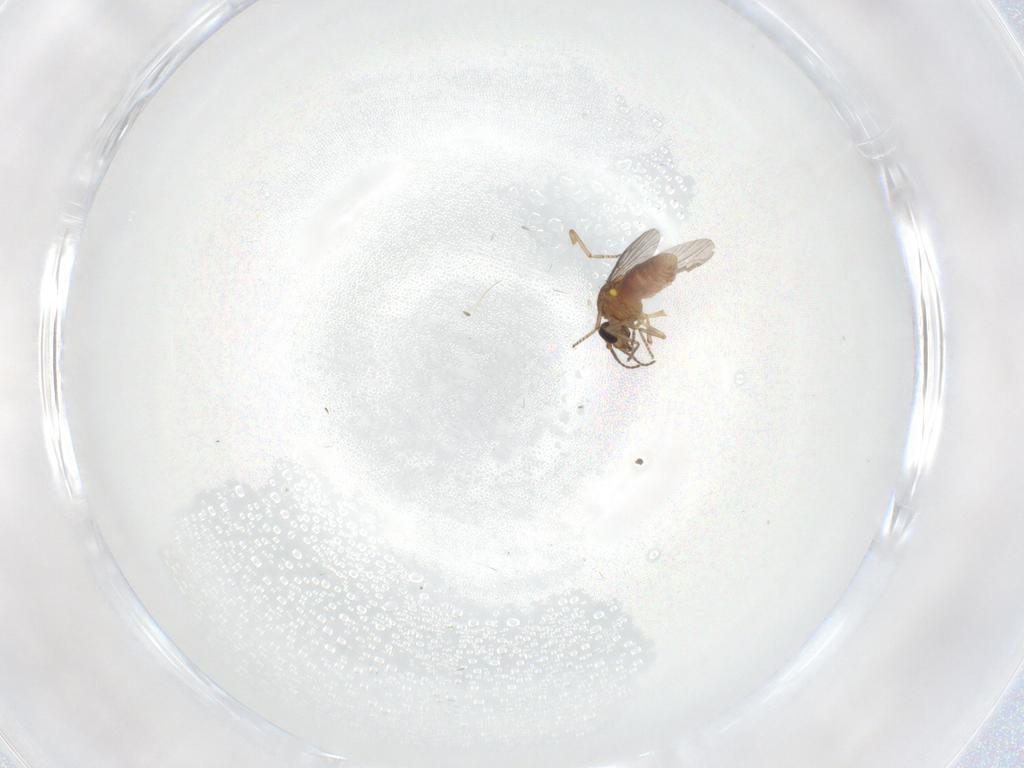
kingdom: Animalia
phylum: Arthropoda
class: Insecta
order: Diptera
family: Ceratopogonidae
